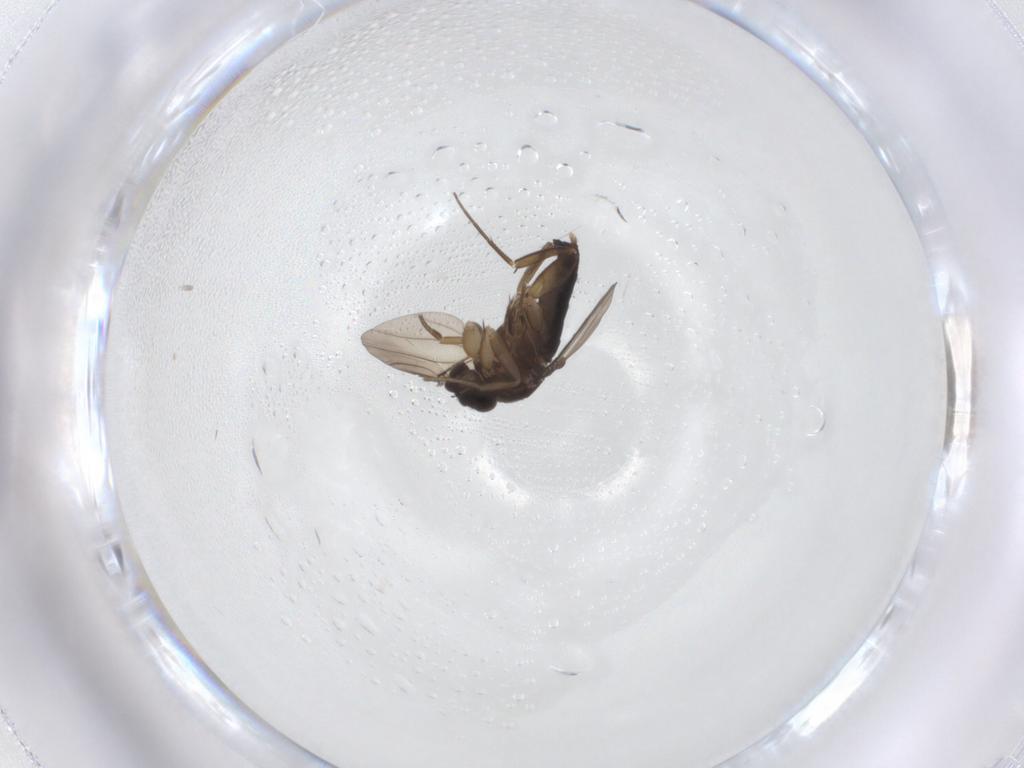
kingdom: Animalia
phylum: Arthropoda
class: Insecta
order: Diptera
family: Phoridae
